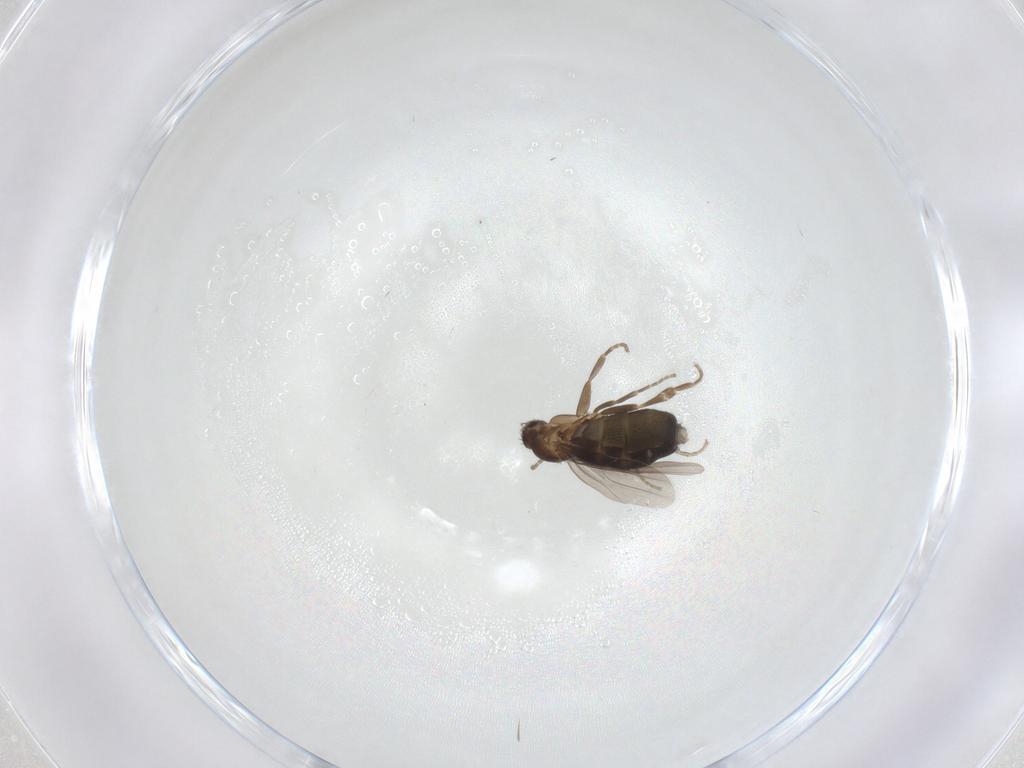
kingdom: Animalia
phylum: Arthropoda
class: Insecta
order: Diptera
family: Phoridae
